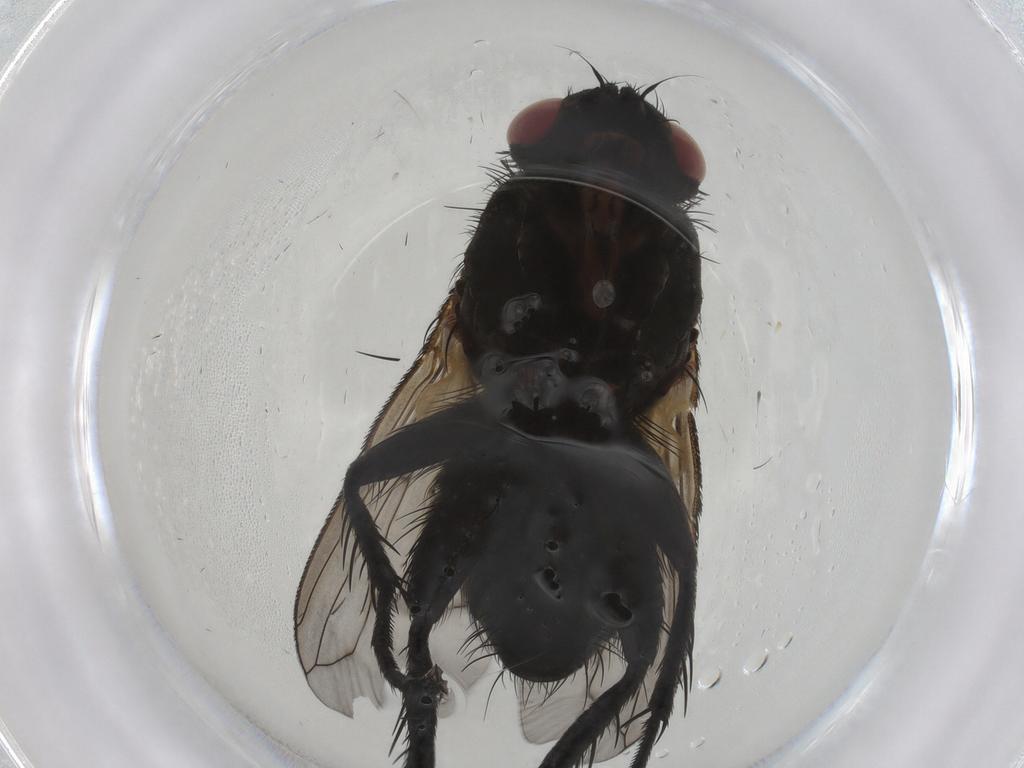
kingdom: Animalia
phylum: Arthropoda
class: Insecta
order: Diptera
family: Tachinidae
